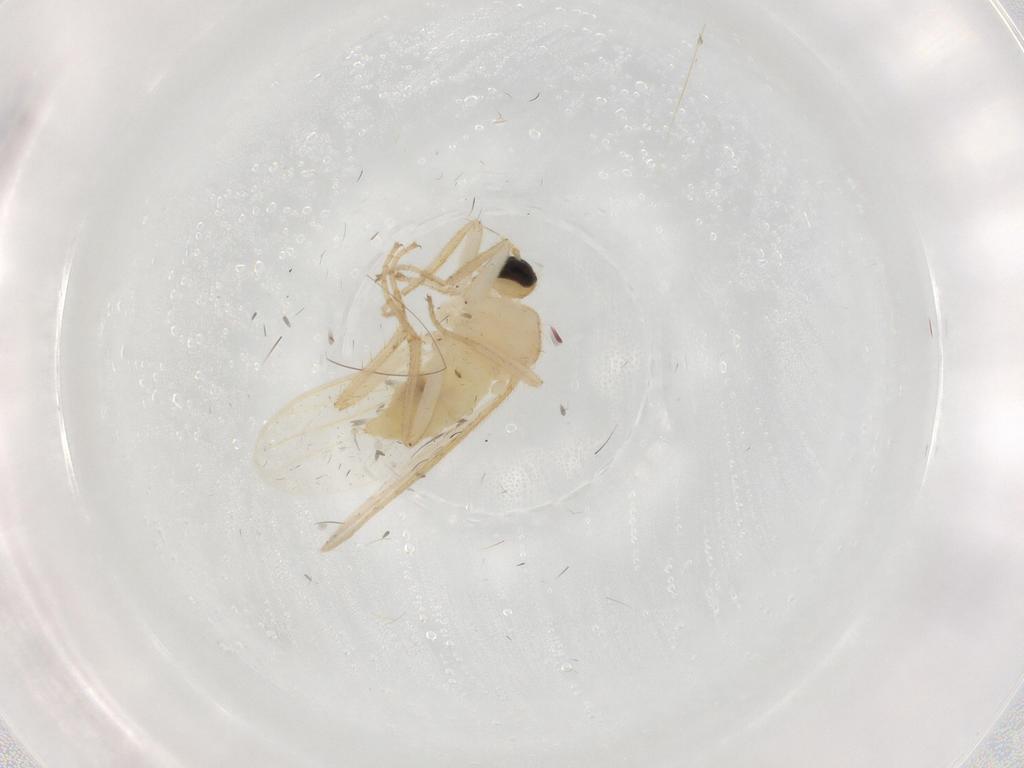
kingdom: Animalia
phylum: Arthropoda
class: Insecta
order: Diptera
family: Hybotidae
